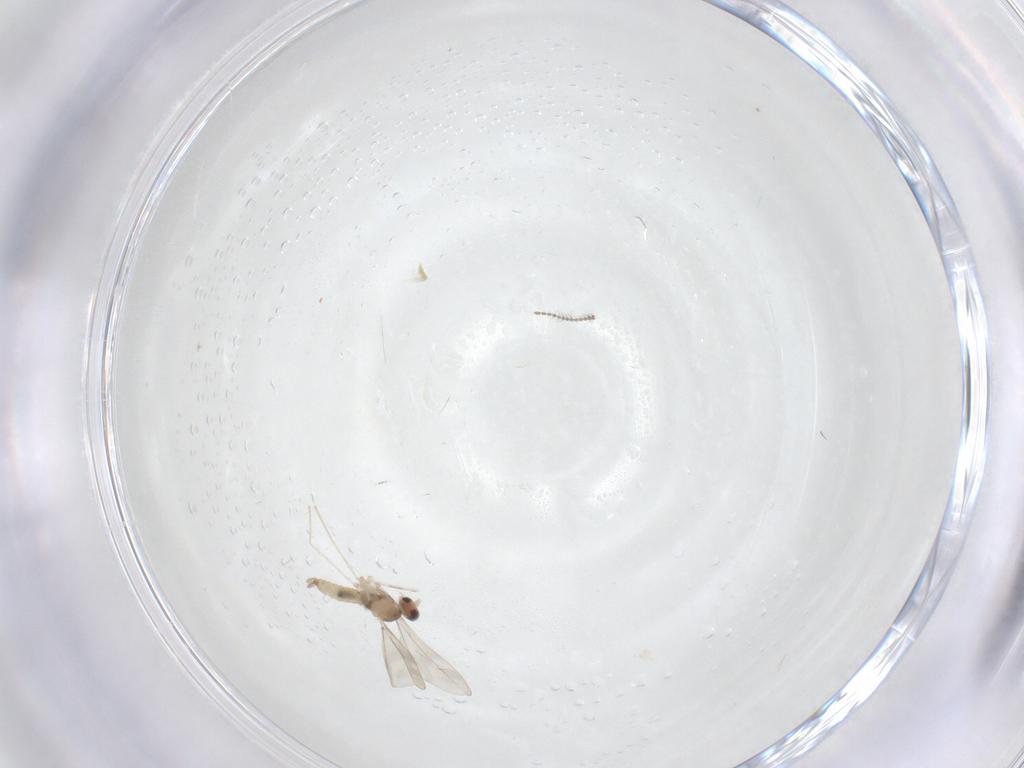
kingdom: Animalia
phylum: Arthropoda
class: Insecta
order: Diptera
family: Cecidomyiidae
